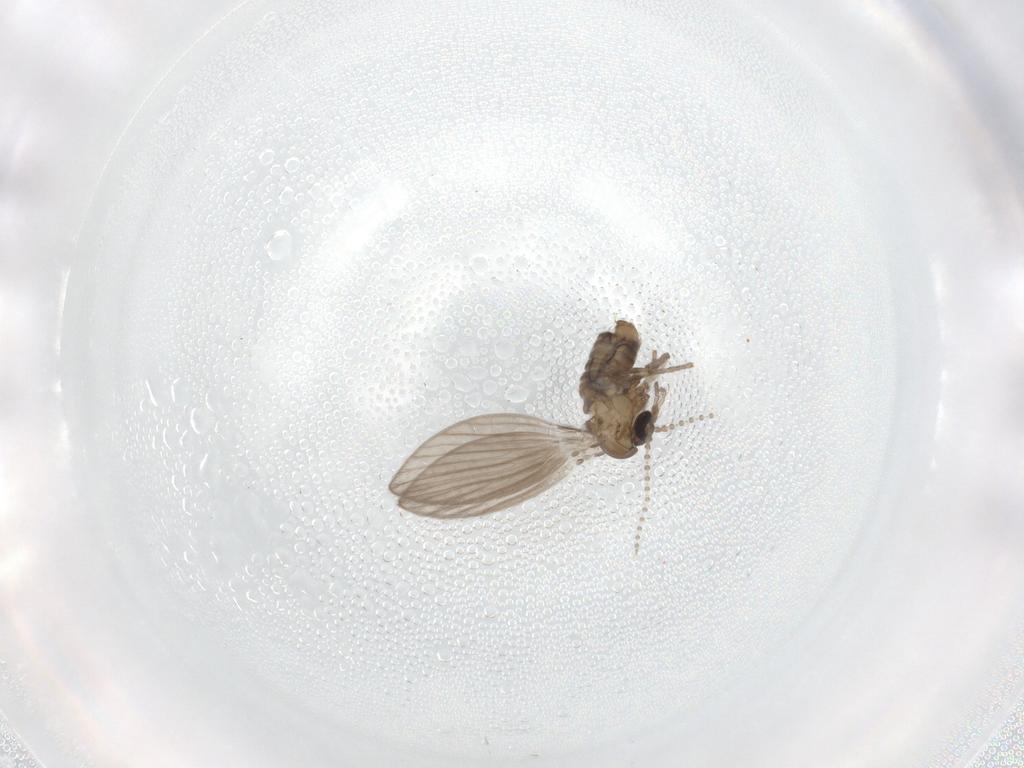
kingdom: Animalia
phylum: Arthropoda
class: Insecta
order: Diptera
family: Psychodidae
